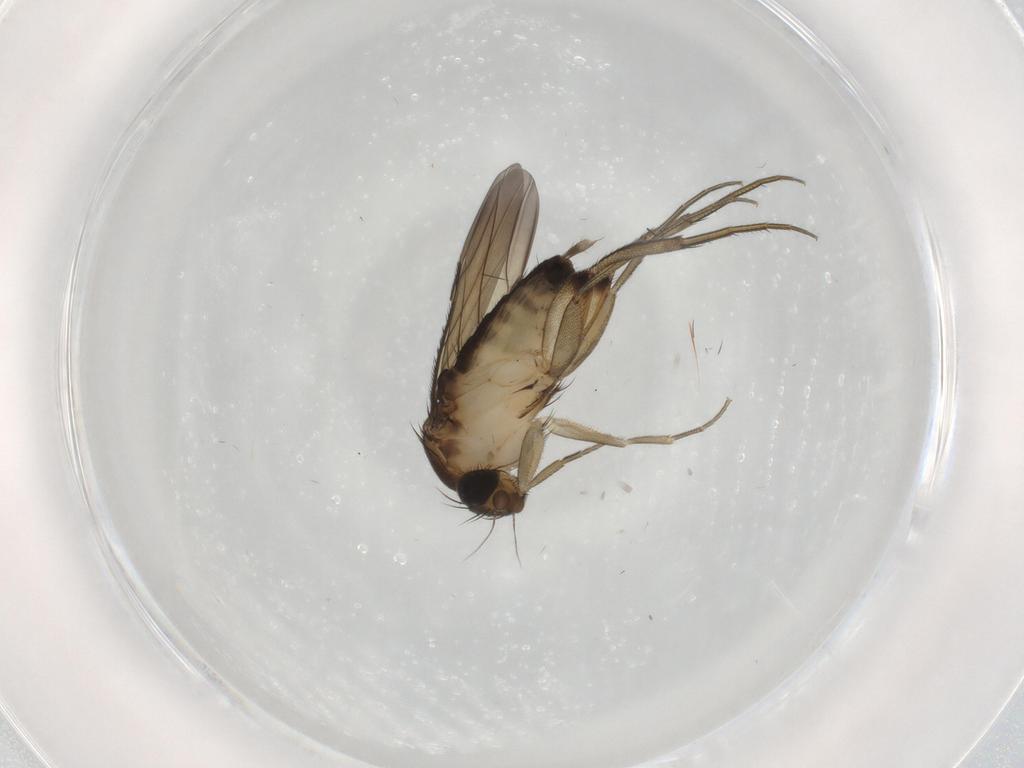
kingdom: Animalia
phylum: Arthropoda
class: Insecta
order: Diptera
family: Phoridae
